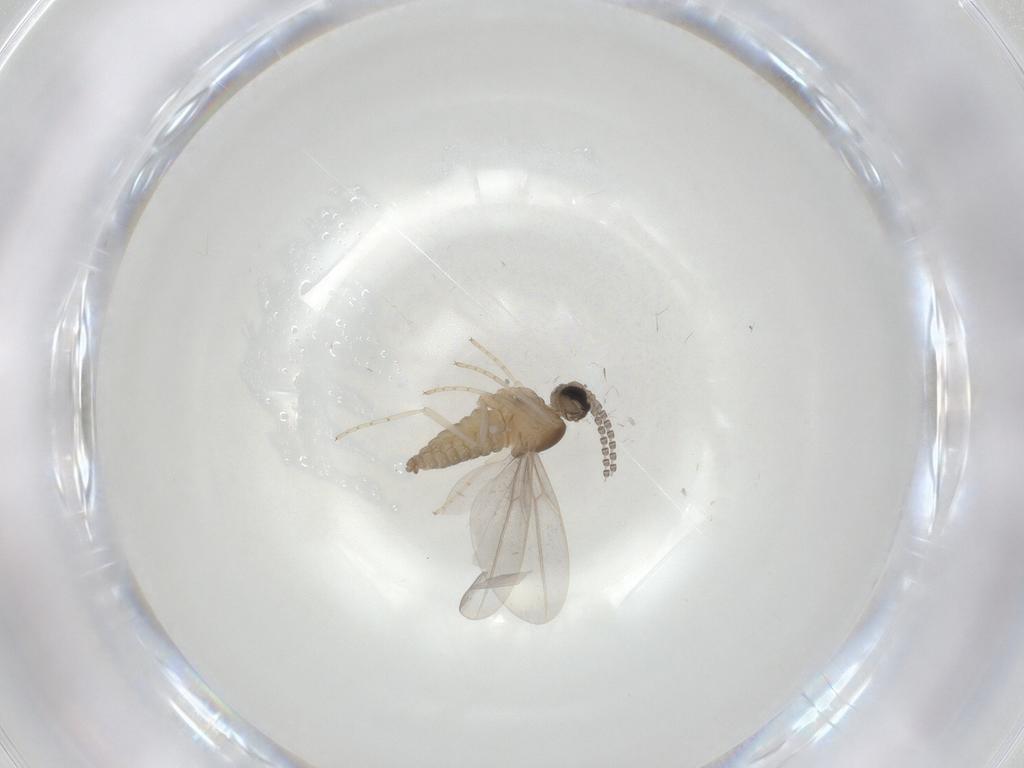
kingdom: Animalia
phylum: Arthropoda
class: Insecta
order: Diptera
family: Cecidomyiidae
